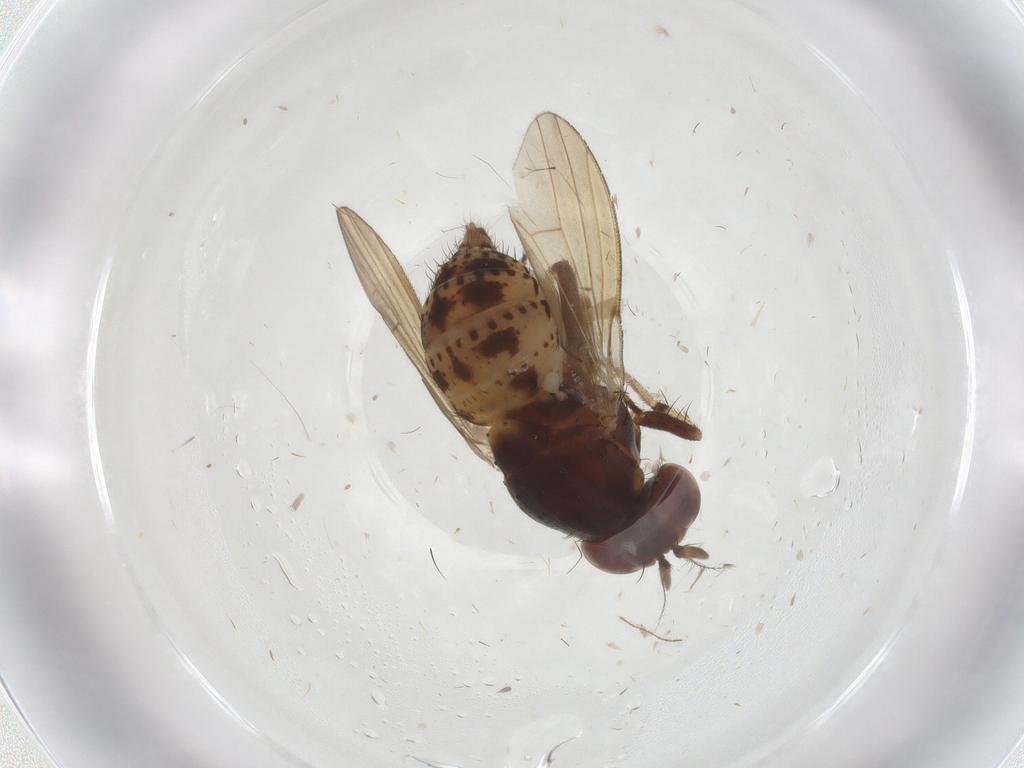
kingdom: Animalia
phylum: Arthropoda
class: Insecta
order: Diptera
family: Ceratopogonidae
